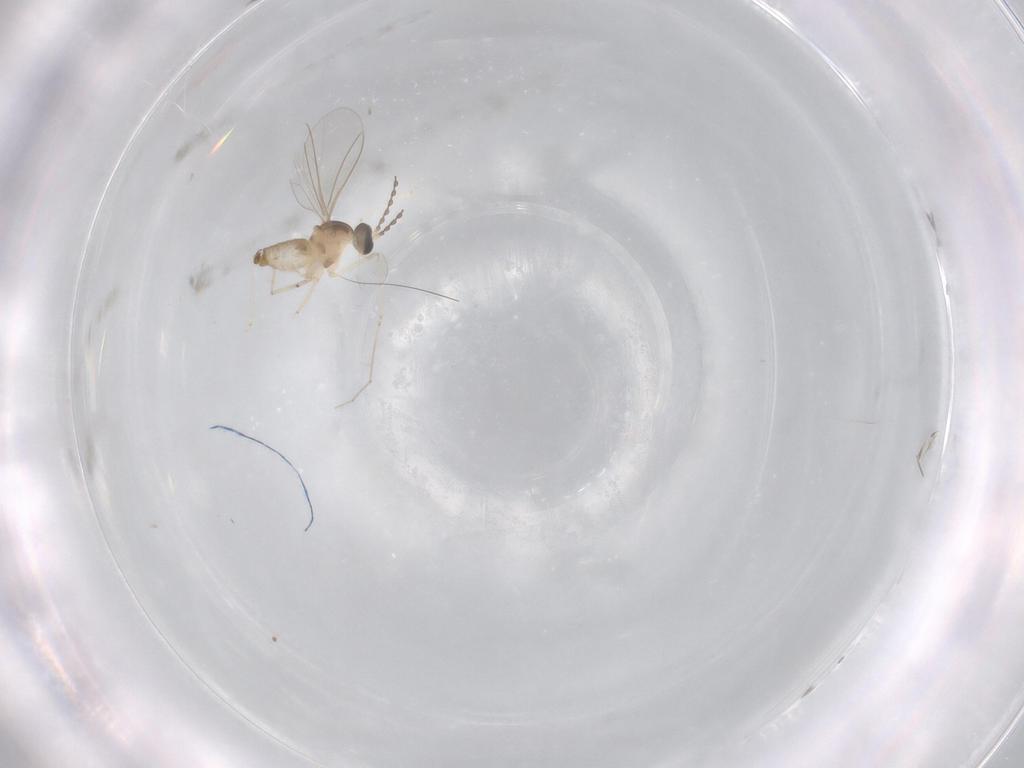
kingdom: Animalia
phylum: Arthropoda
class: Insecta
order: Diptera
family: Cecidomyiidae
